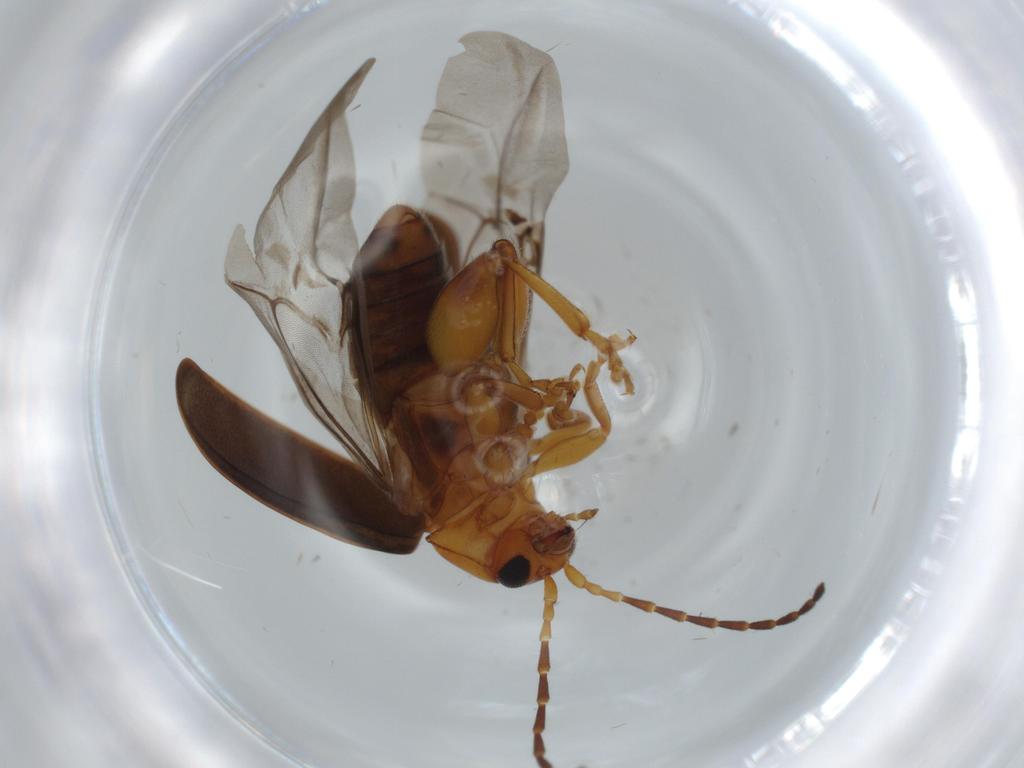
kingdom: Animalia
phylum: Arthropoda
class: Insecta
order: Coleoptera
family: Chrysomelidae
